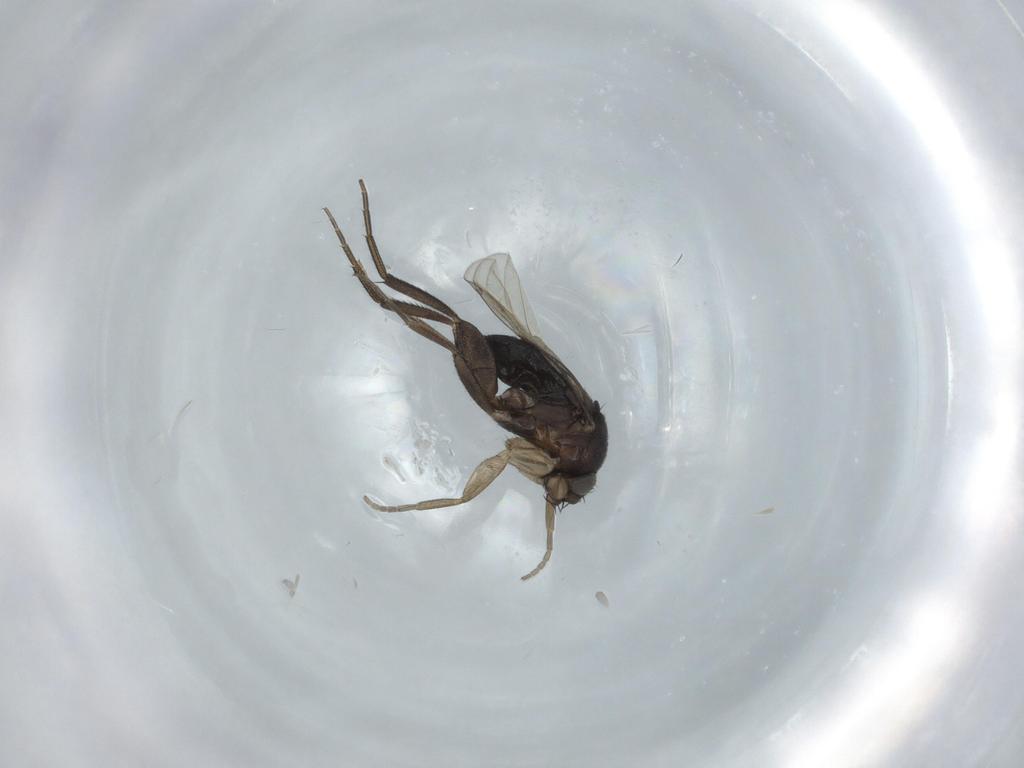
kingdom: Animalia
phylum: Arthropoda
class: Insecta
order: Diptera
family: Phoridae
